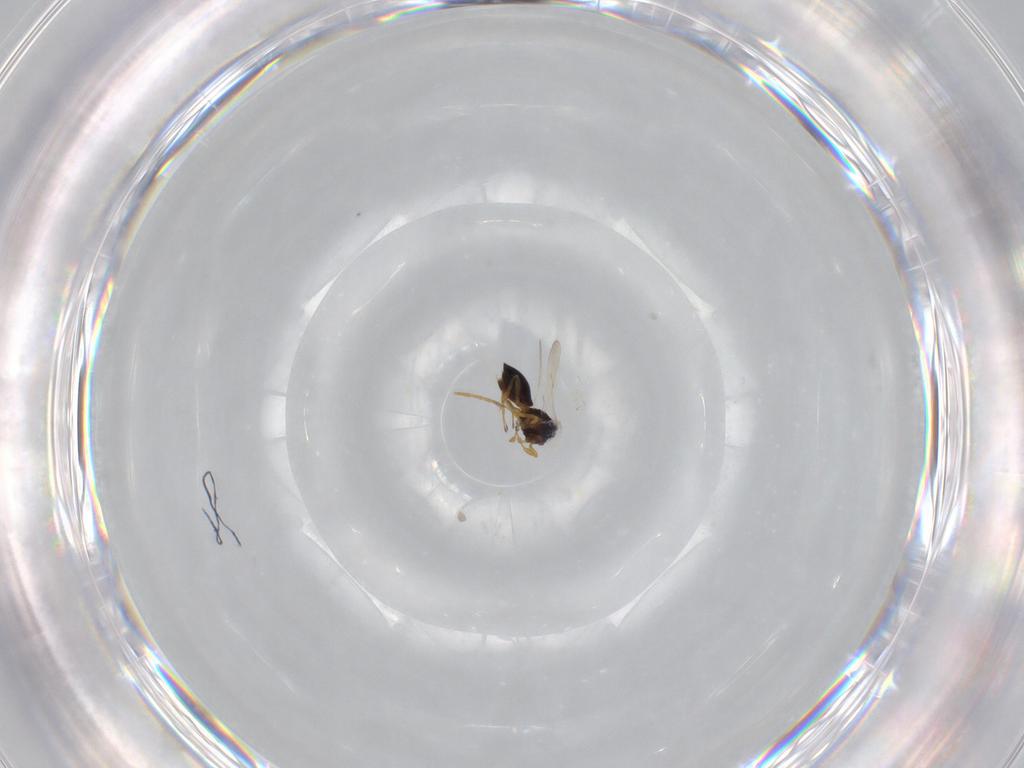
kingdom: Animalia
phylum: Arthropoda
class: Insecta
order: Hymenoptera
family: Scelionidae
